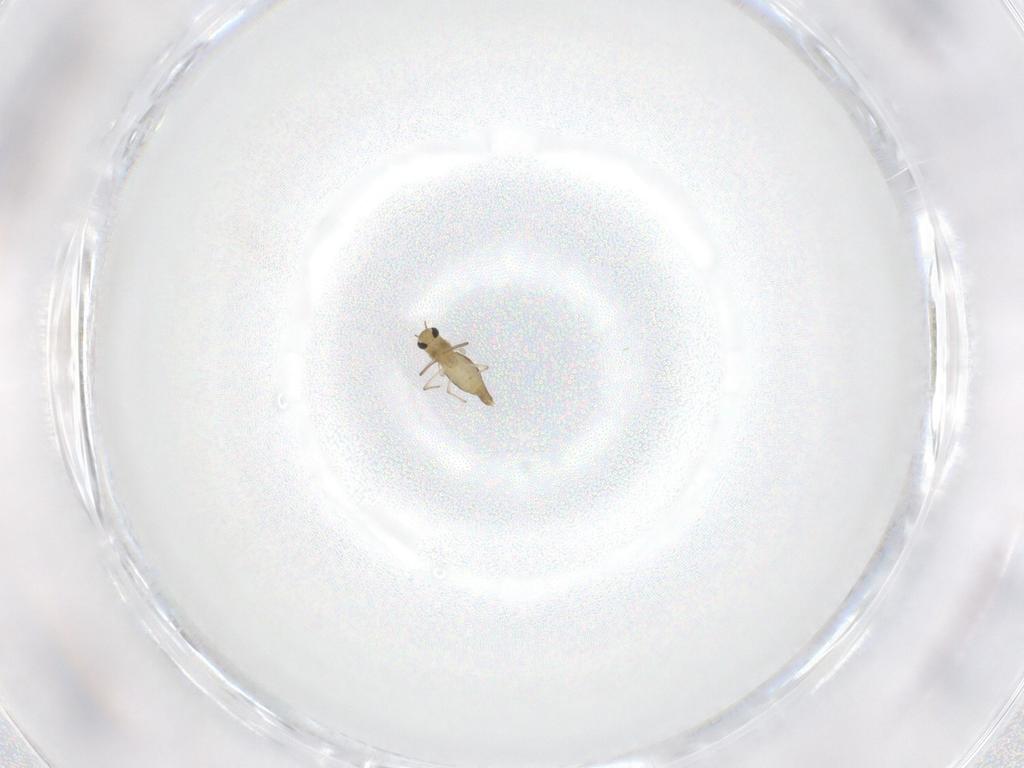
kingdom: Animalia
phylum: Arthropoda
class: Insecta
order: Diptera
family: Chironomidae
